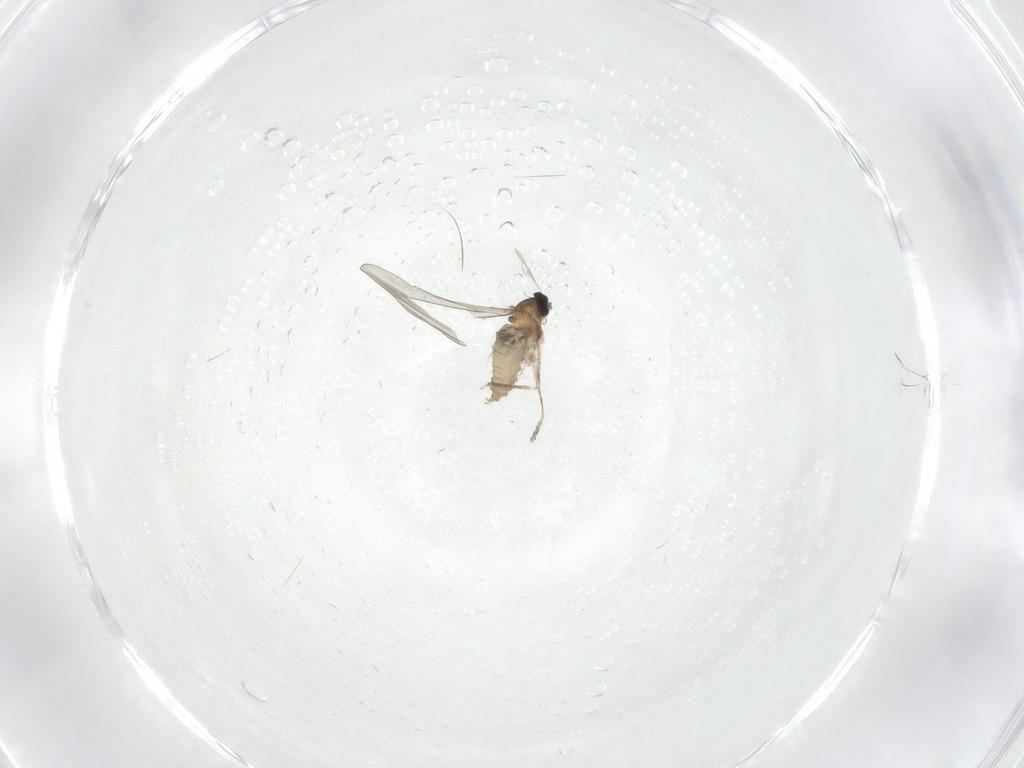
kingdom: Animalia
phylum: Arthropoda
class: Insecta
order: Diptera
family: Cecidomyiidae
